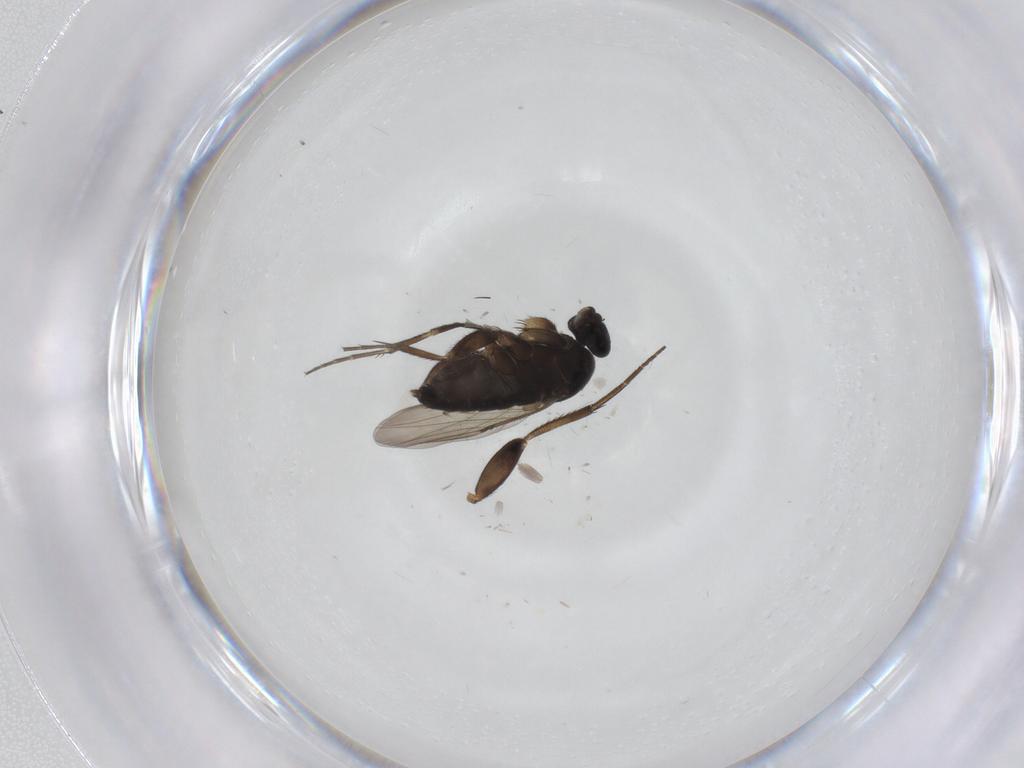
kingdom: Animalia
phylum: Arthropoda
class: Insecta
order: Diptera
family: Phoridae
